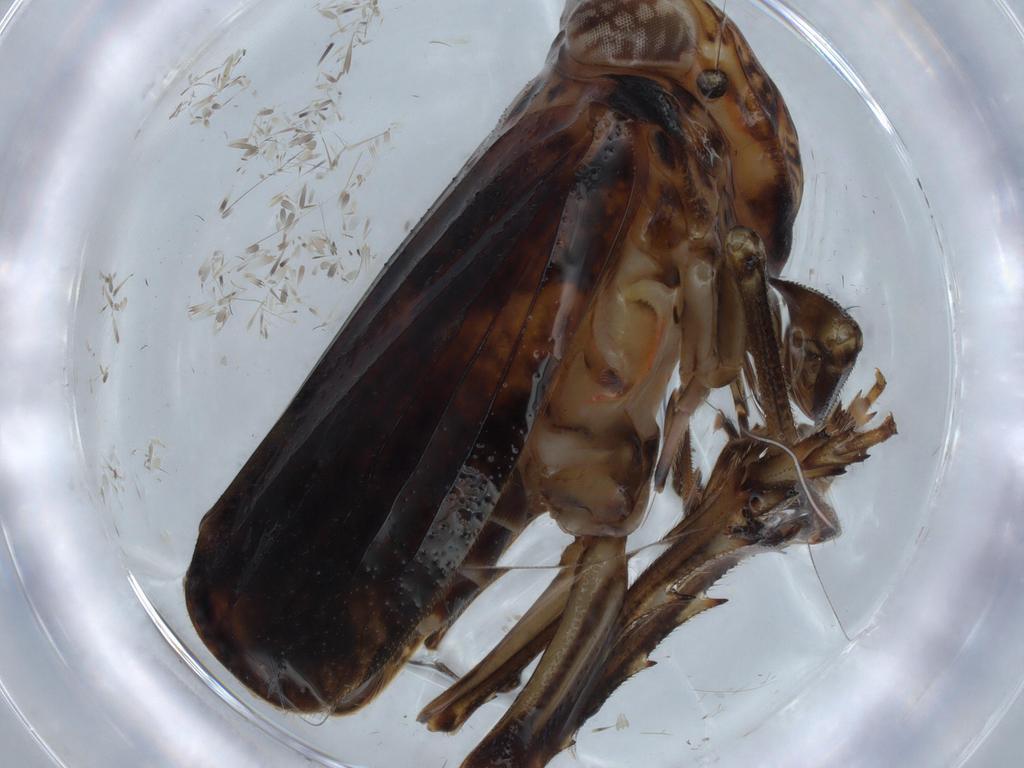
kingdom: Animalia
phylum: Arthropoda
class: Insecta
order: Hemiptera
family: Issidae
